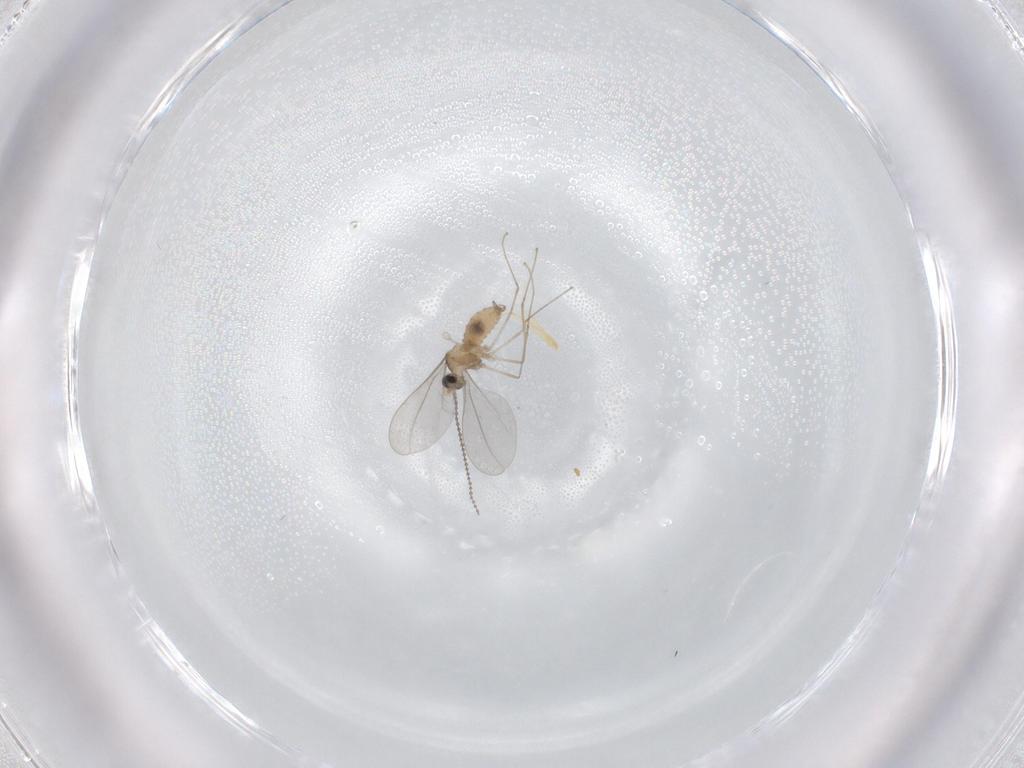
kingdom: Animalia
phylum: Arthropoda
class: Insecta
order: Diptera
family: Cecidomyiidae
